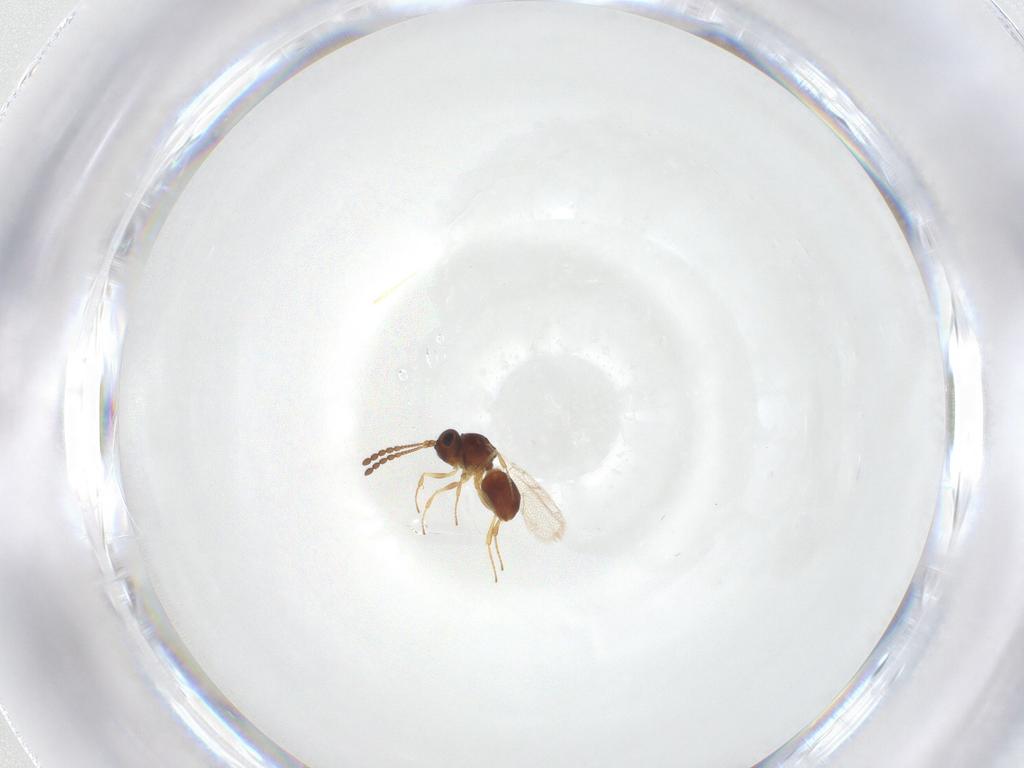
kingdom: Animalia
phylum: Arthropoda
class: Insecta
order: Hymenoptera
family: Figitidae
